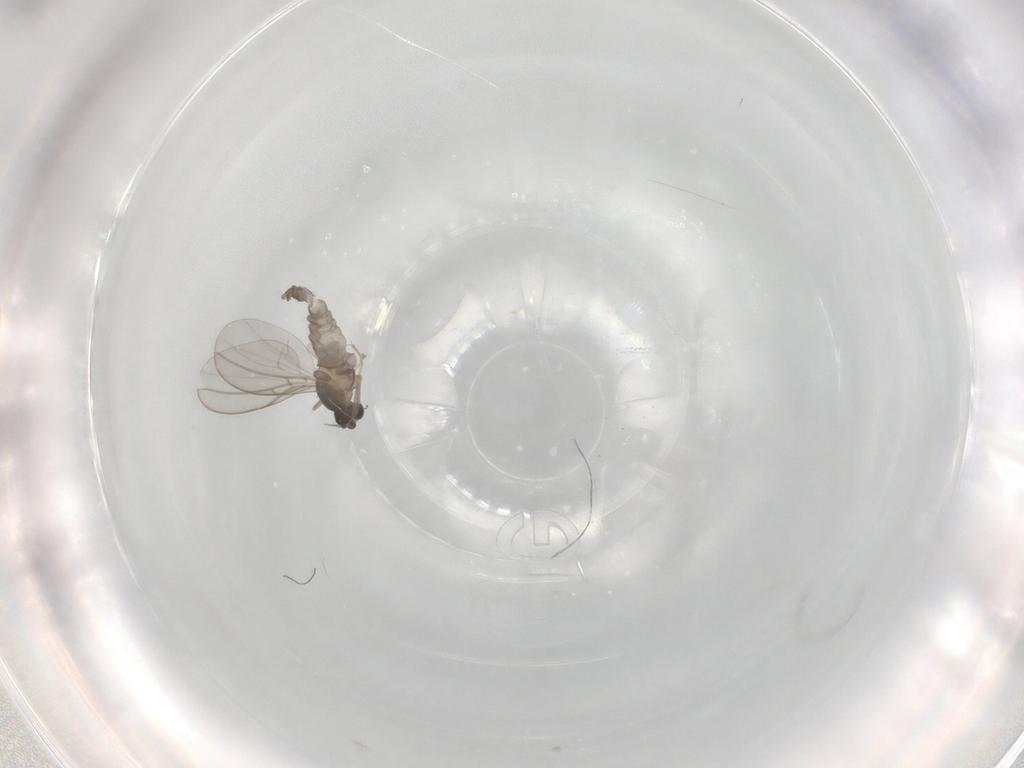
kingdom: Animalia
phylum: Arthropoda
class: Insecta
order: Diptera
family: Cecidomyiidae
